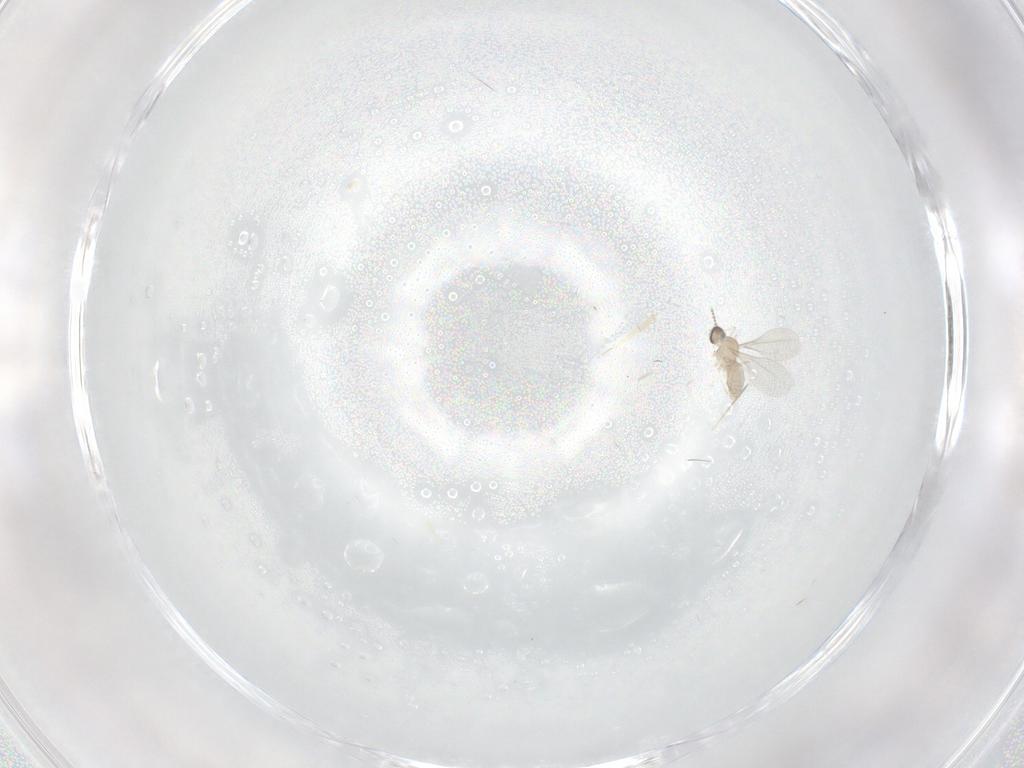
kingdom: Animalia
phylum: Arthropoda
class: Insecta
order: Diptera
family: Cecidomyiidae
